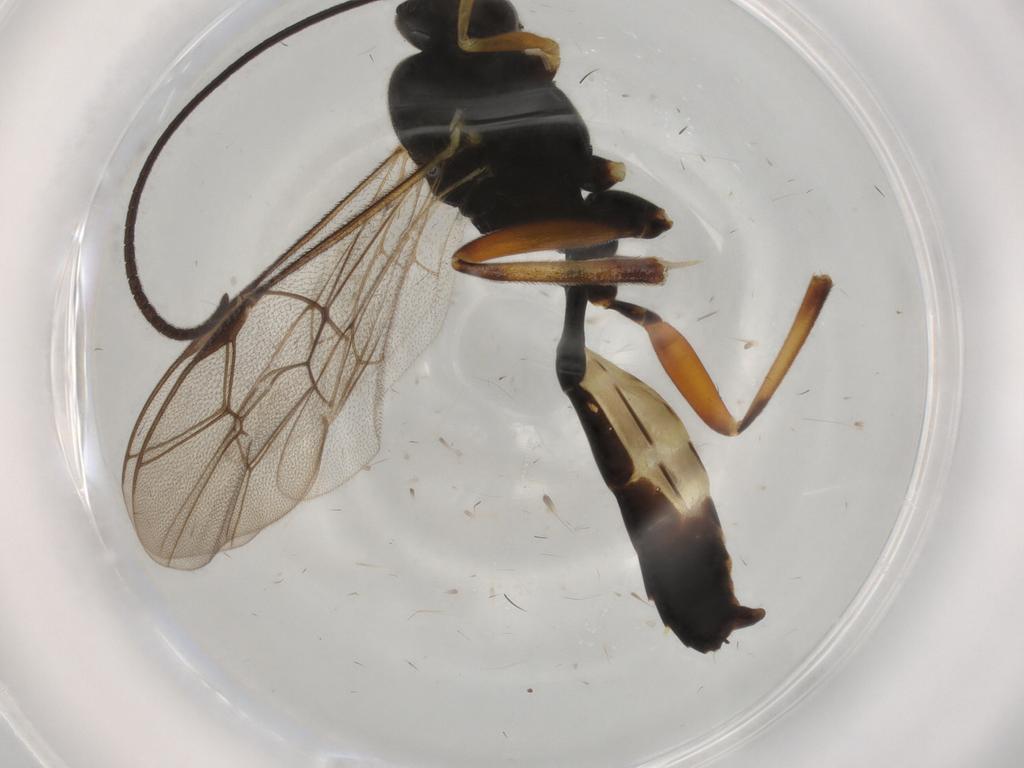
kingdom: Animalia
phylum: Arthropoda
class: Insecta
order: Hymenoptera
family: Ichneumonidae
